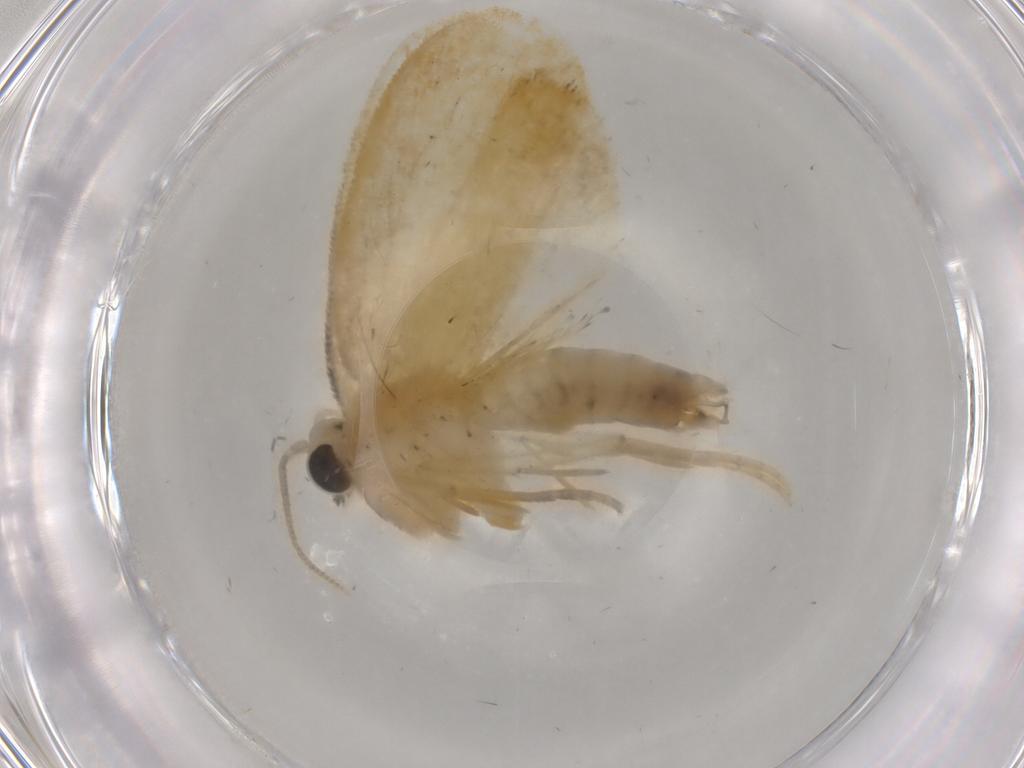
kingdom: Animalia
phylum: Arthropoda
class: Insecta
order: Lepidoptera
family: Psychidae
